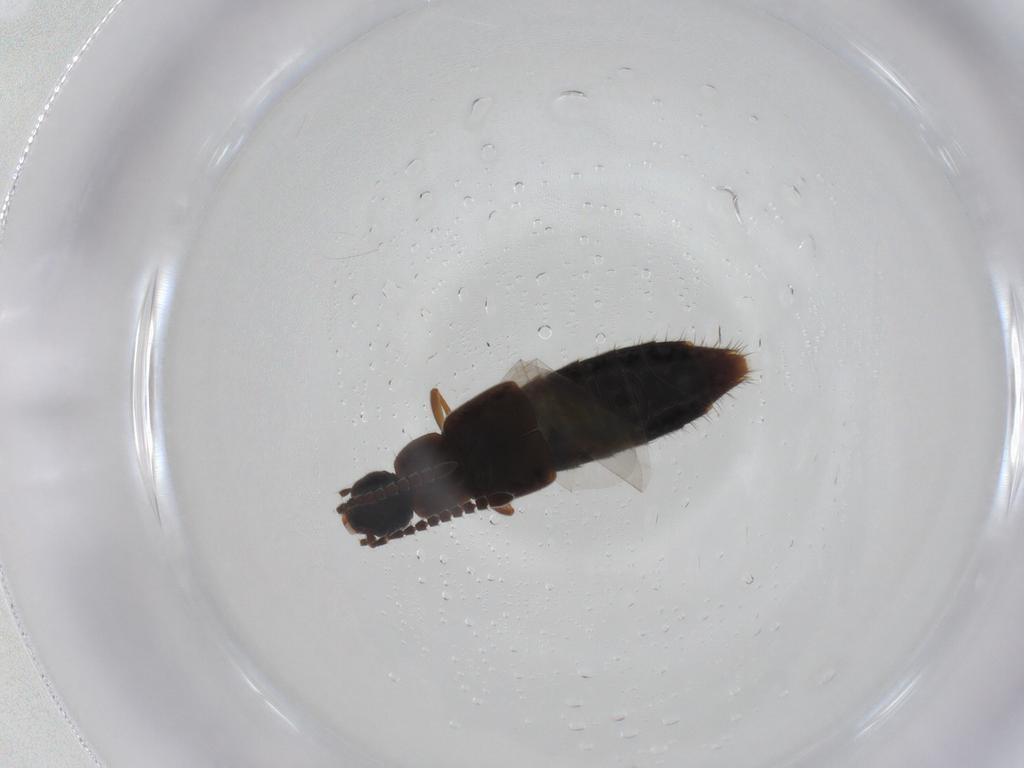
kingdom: Animalia
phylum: Arthropoda
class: Insecta
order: Coleoptera
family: Staphylinidae
